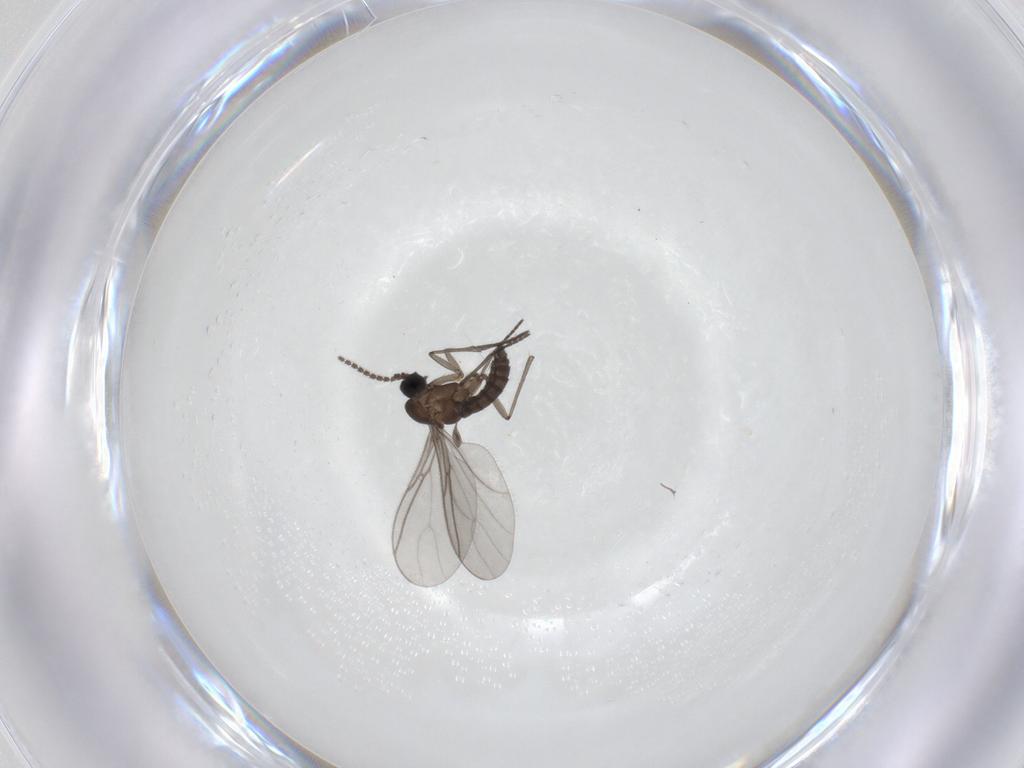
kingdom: Animalia
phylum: Arthropoda
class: Insecta
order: Diptera
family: Sciaridae
